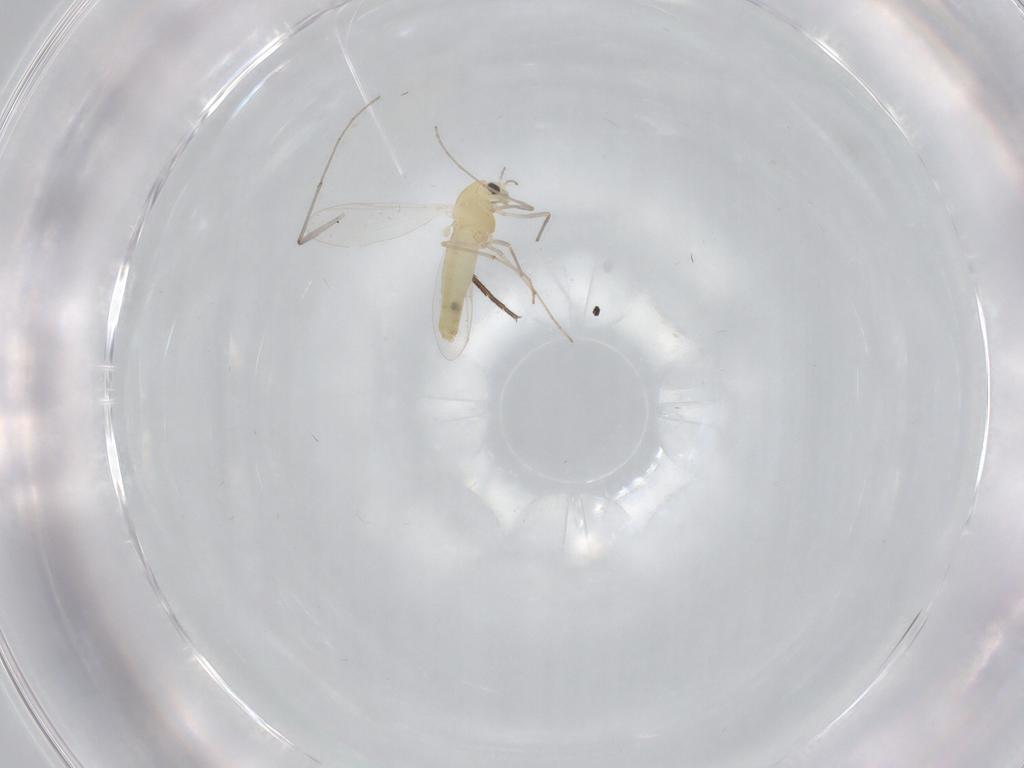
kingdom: Animalia
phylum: Arthropoda
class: Insecta
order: Diptera
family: Chironomidae
